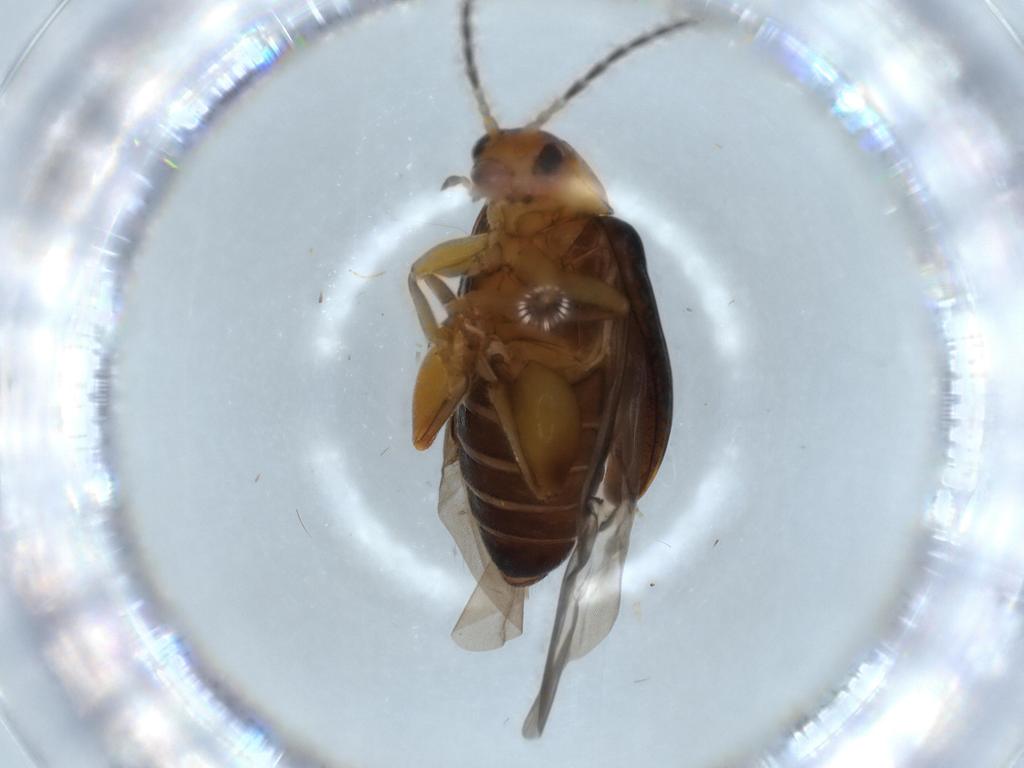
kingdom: Animalia
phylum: Arthropoda
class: Insecta
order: Coleoptera
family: Chrysomelidae
